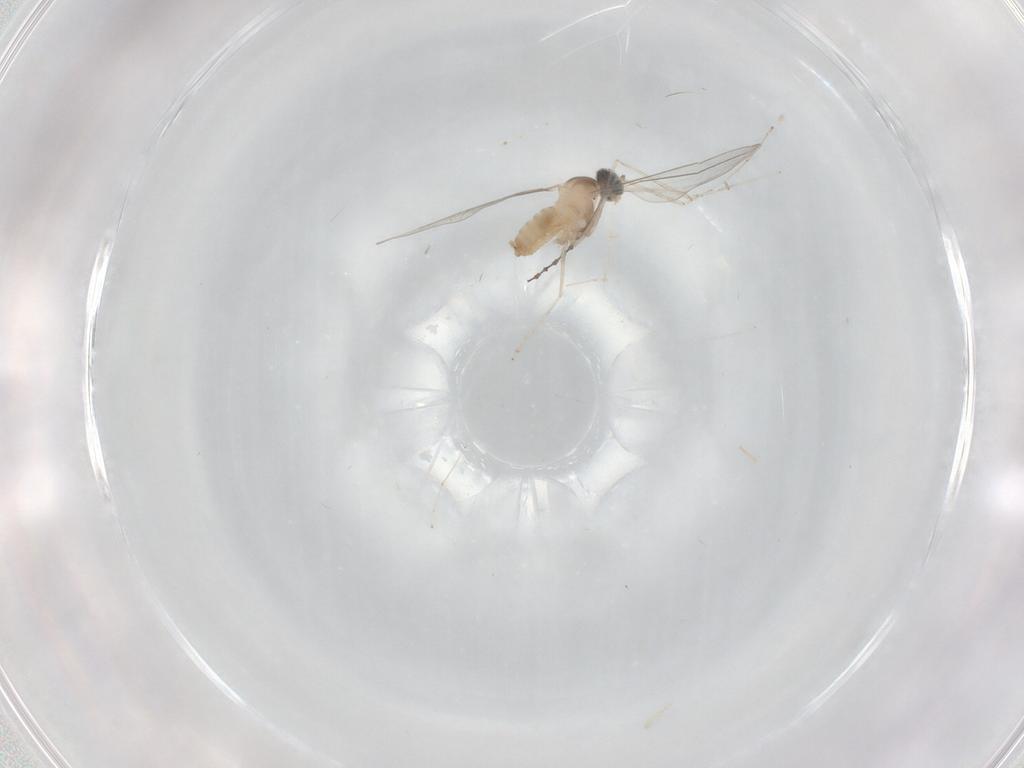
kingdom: Animalia
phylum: Arthropoda
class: Insecta
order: Diptera
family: Cecidomyiidae
